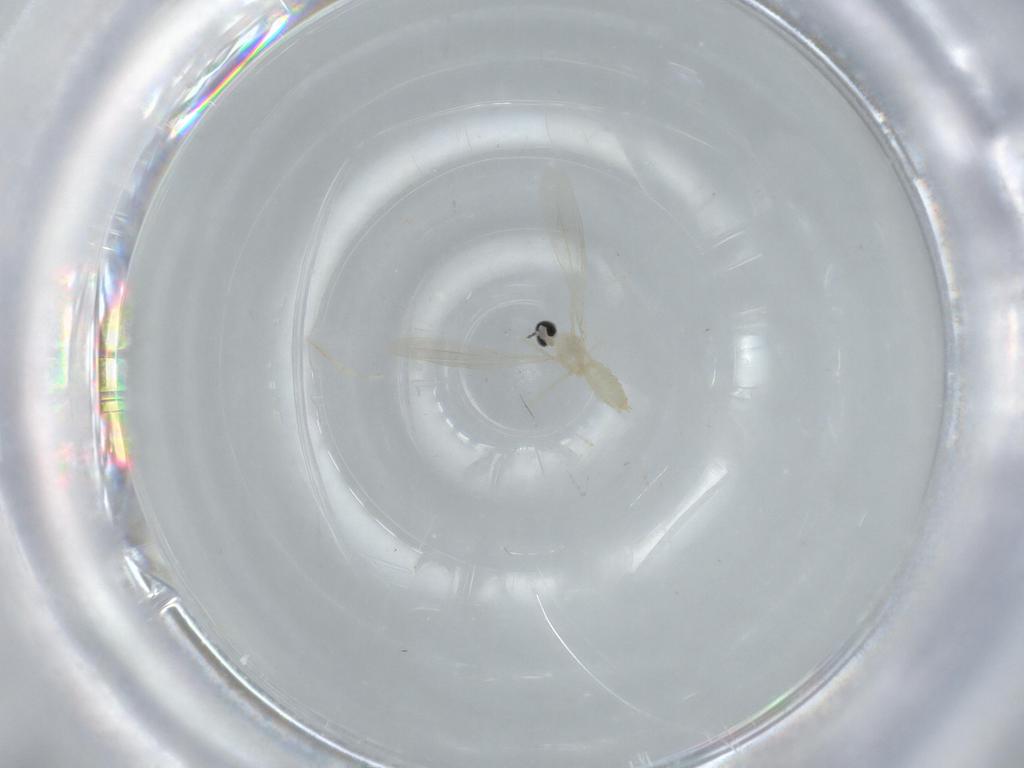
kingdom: Animalia
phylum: Arthropoda
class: Insecta
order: Diptera
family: Cecidomyiidae
